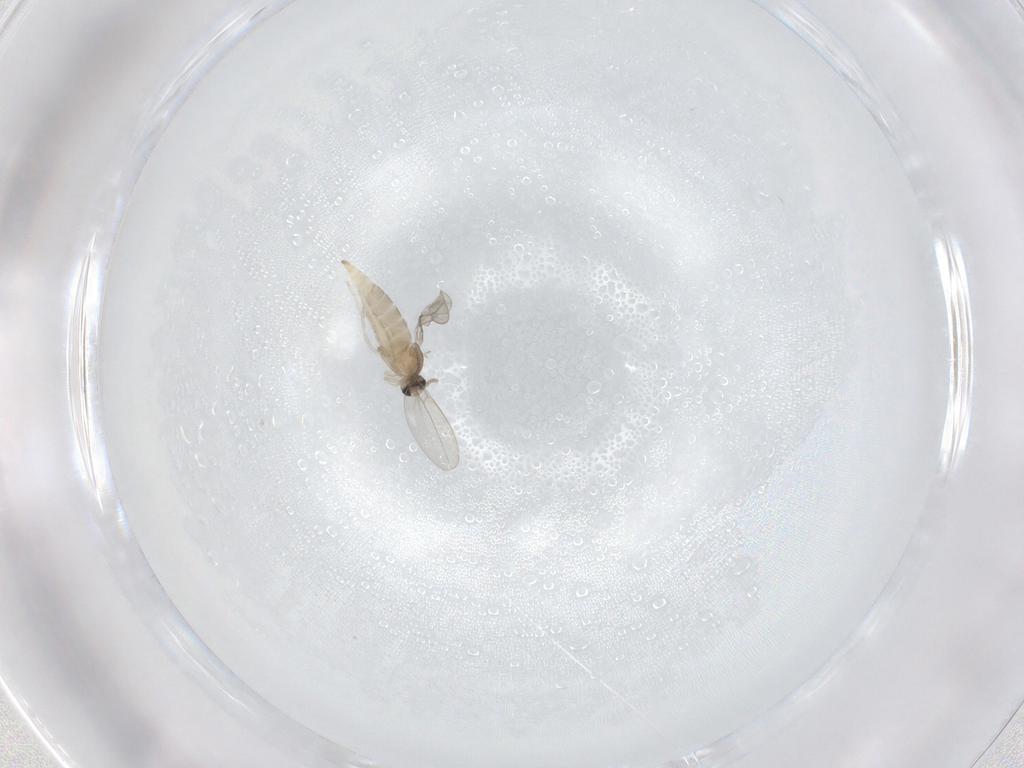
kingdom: Animalia
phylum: Arthropoda
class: Insecta
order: Diptera
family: Cecidomyiidae
